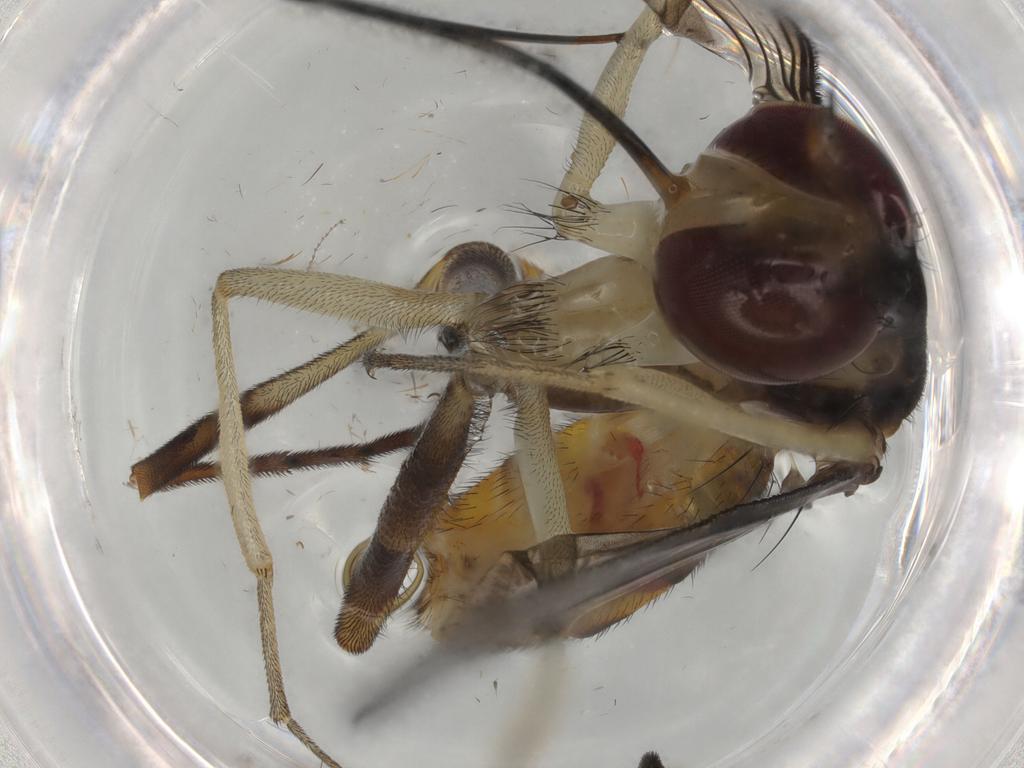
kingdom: Animalia
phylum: Arthropoda
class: Insecta
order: Diptera
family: Sciaridae
